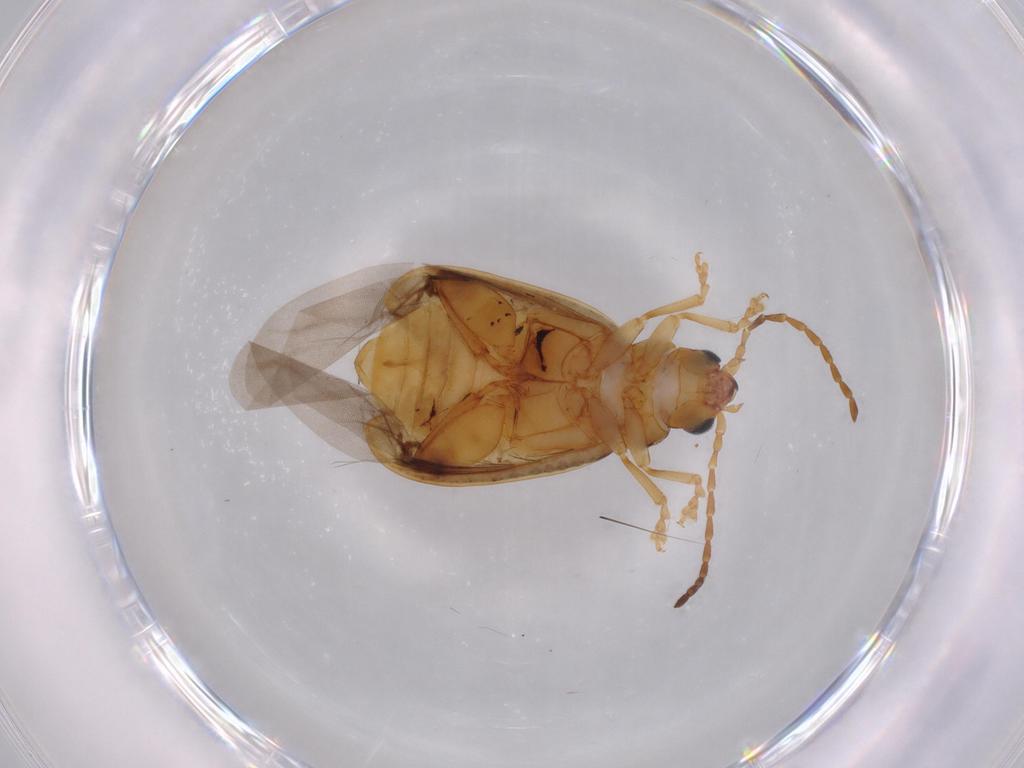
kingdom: Animalia
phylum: Arthropoda
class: Insecta
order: Coleoptera
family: Chrysomelidae
